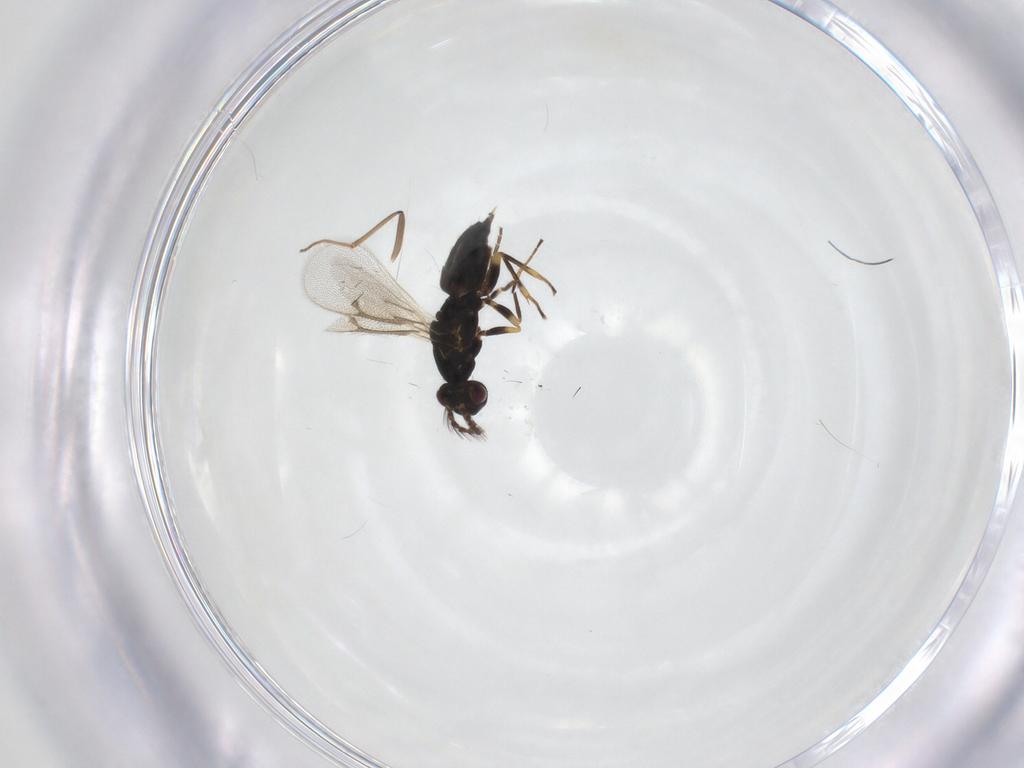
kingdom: Animalia
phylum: Arthropoda
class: Insecta
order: Hymenoptera
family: Eulophidae
